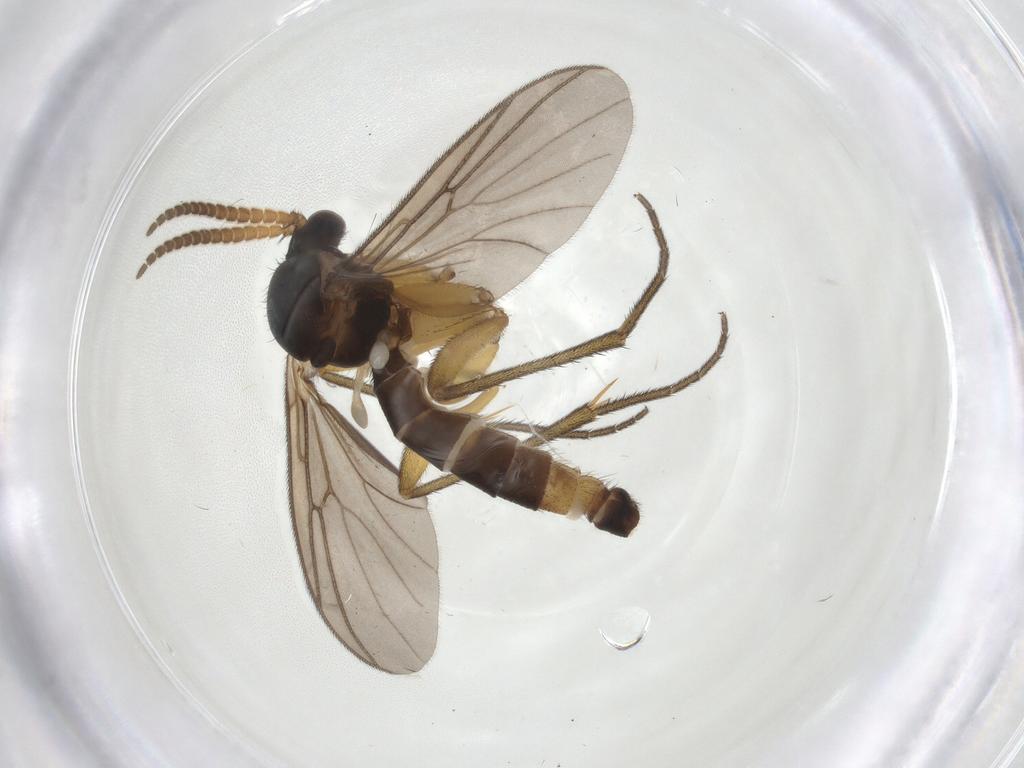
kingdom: Animalia
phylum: Arthropoda
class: Insecta
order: Diptera
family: Mycetophilidae
